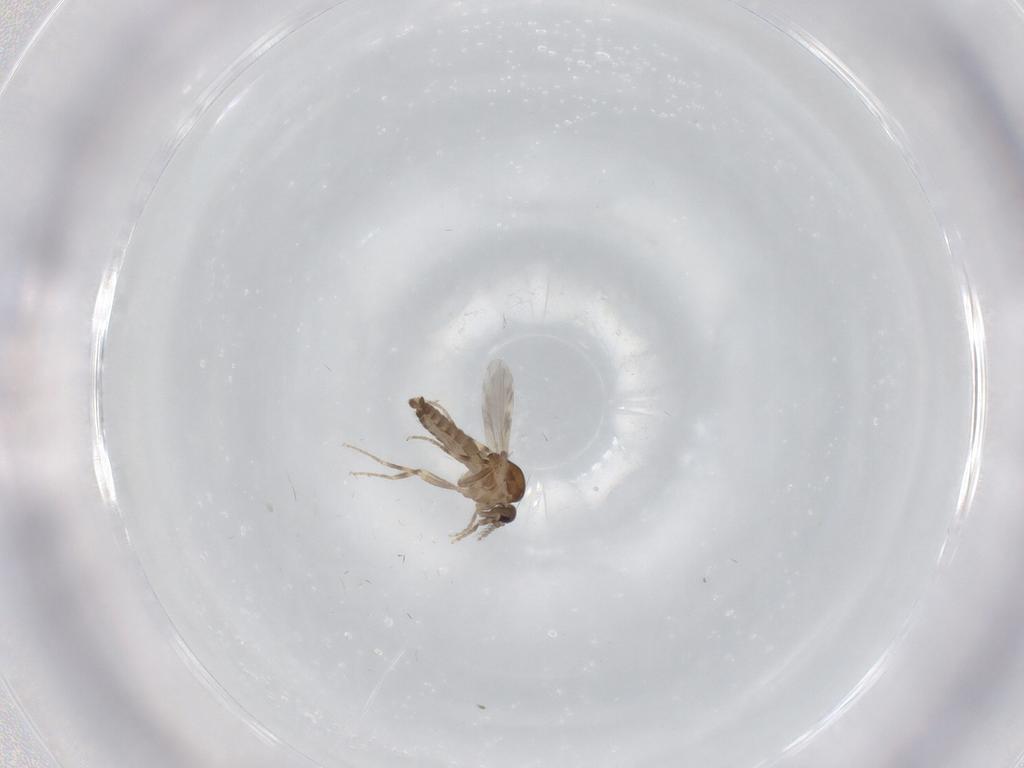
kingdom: Animalia
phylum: Arthropoda
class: Insecta
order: Diptera
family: Ceratopogonidae
